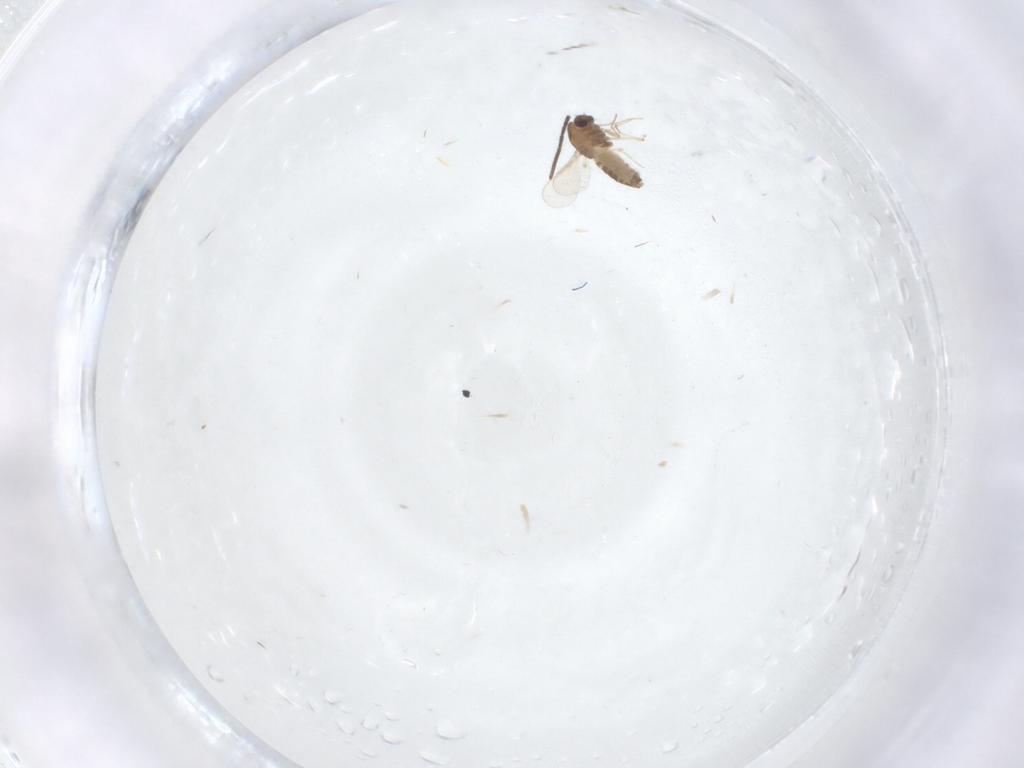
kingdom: Animalia
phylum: Arthropoda
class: Insecta
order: Diptera
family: Chironomidae
